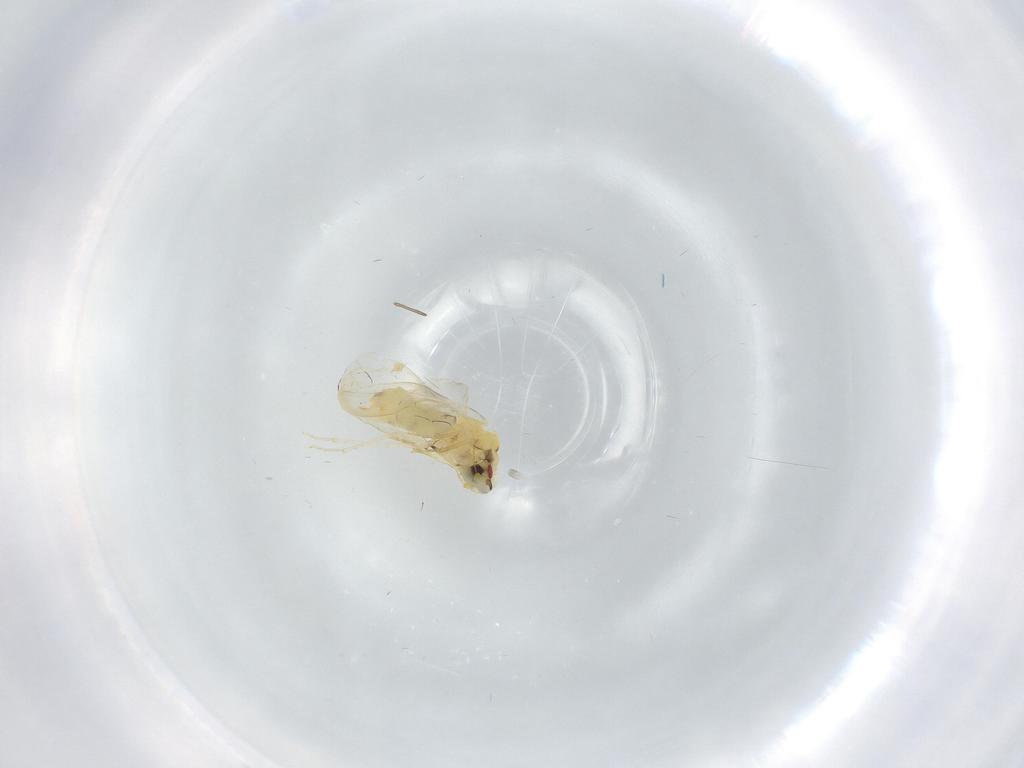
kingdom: Animalia
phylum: Arthropoda
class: Insecta
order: Hemiptera
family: Aleyrodidae
